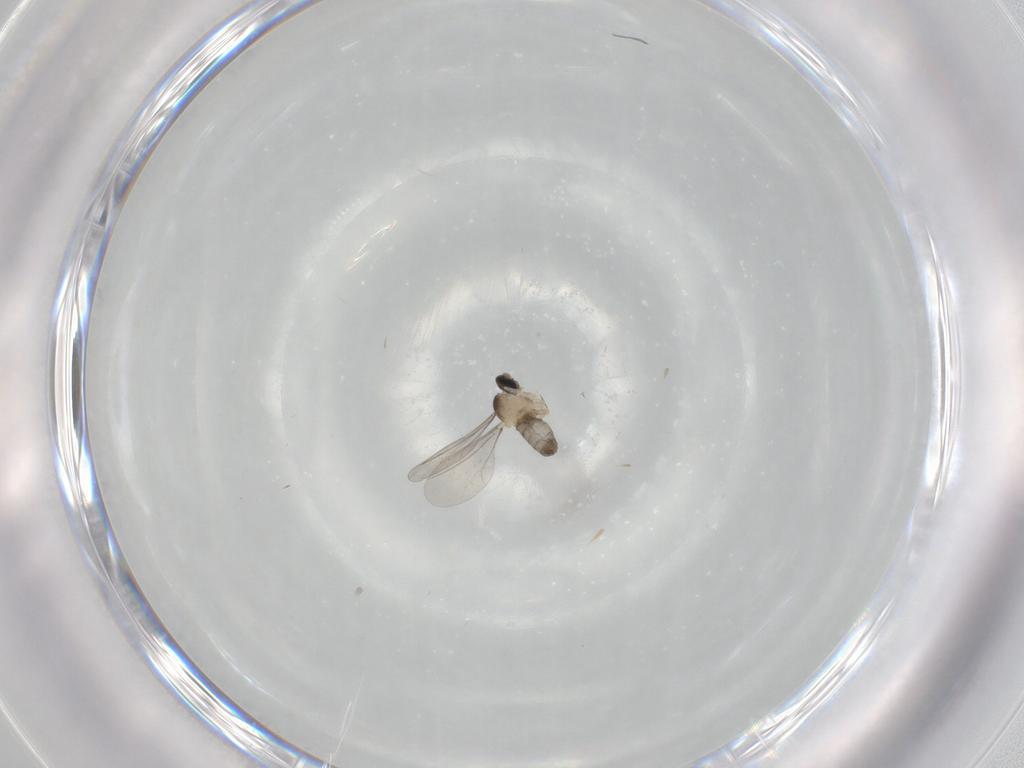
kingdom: Animalia
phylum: Arthropoda
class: Insecta
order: Diptera
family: Cecidomyiidae
